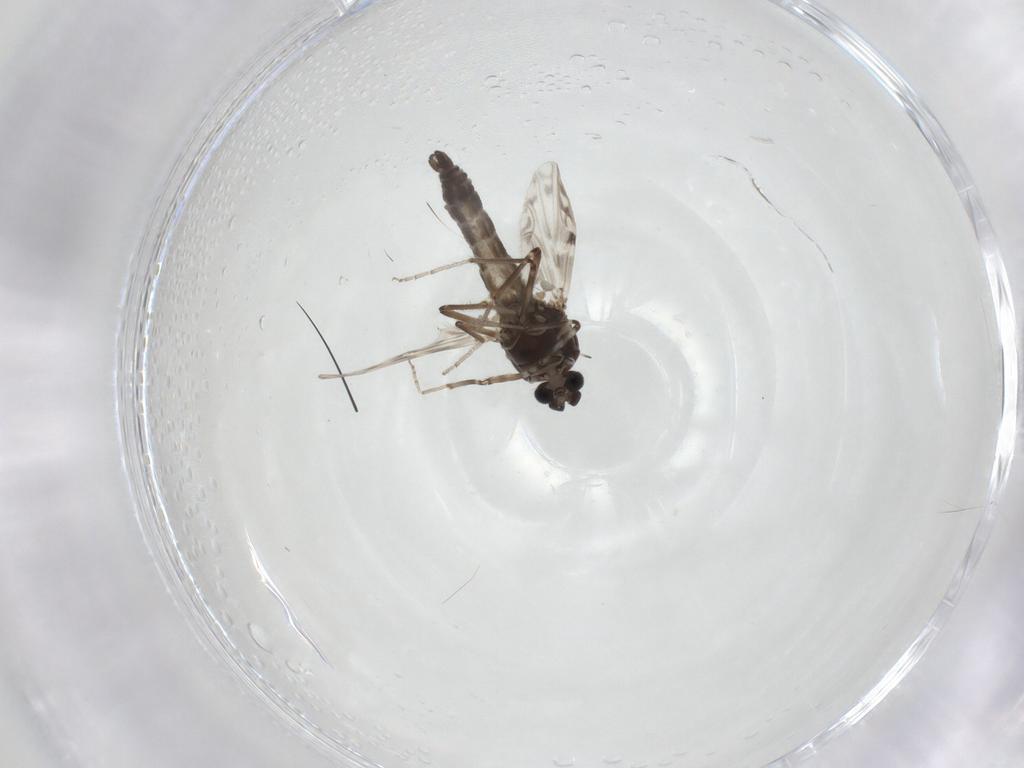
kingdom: Animalia
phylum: Arthropoda
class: Insecta
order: Diptera
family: Ceratopogonidae
